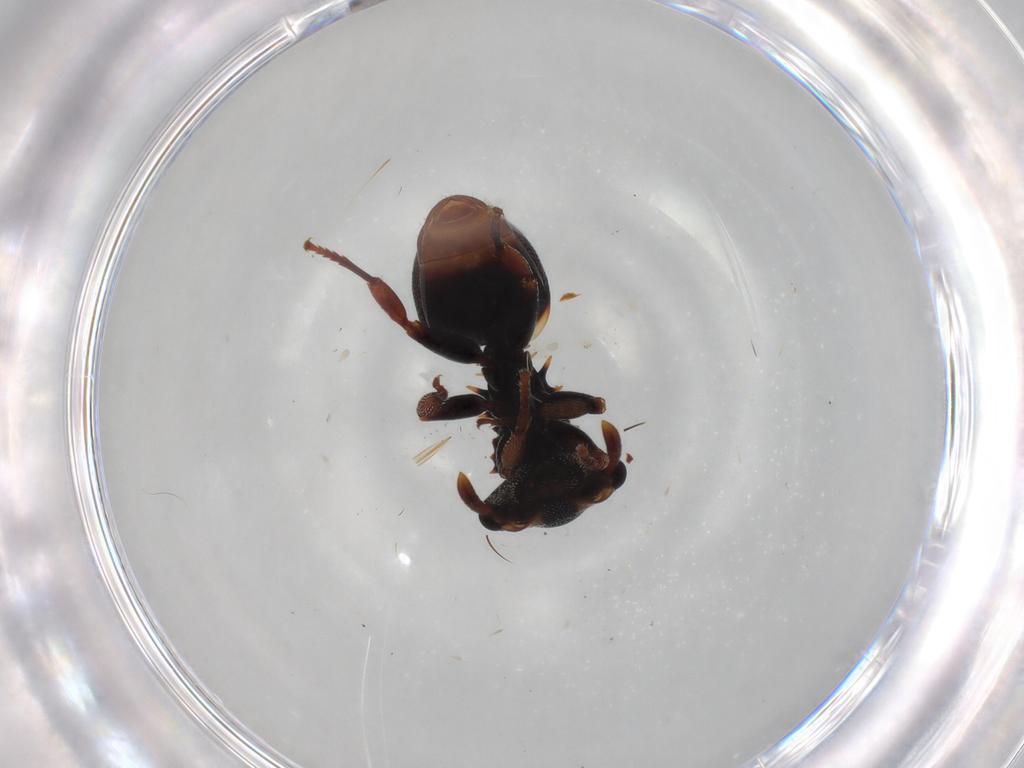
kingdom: Animalia
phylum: Arthropoda
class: Insecta
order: Hymenoptera
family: Formicidae
